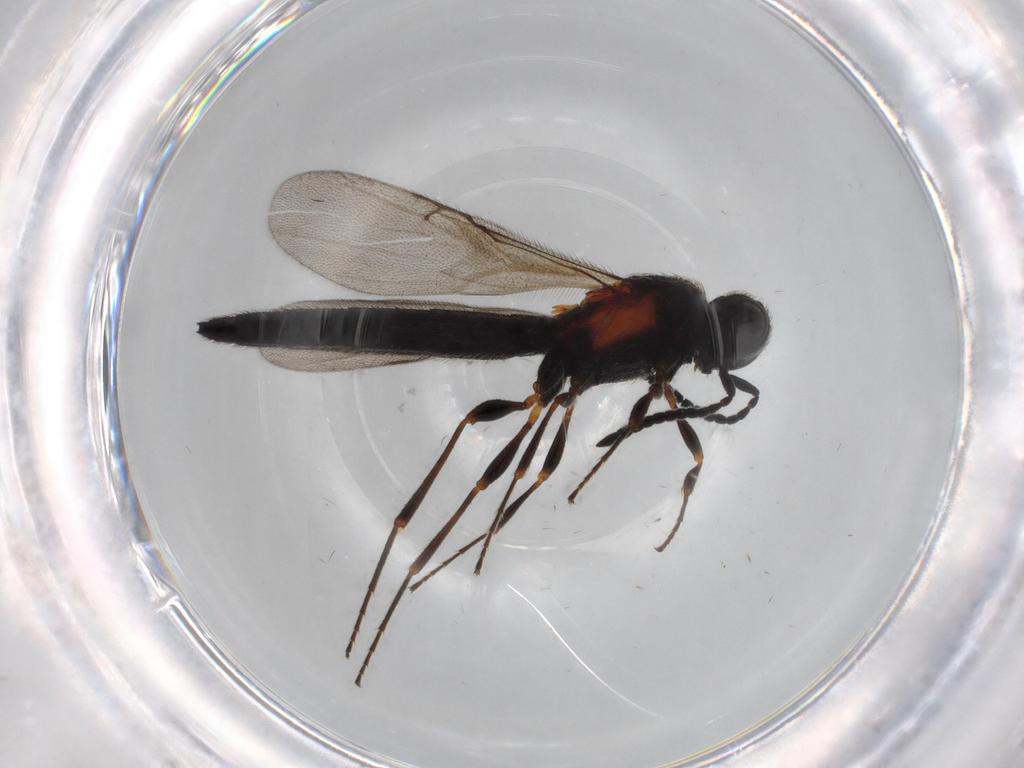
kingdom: Animalia
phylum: Arthropoda
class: Insecta
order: Hymenoptera
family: Scelionidae
